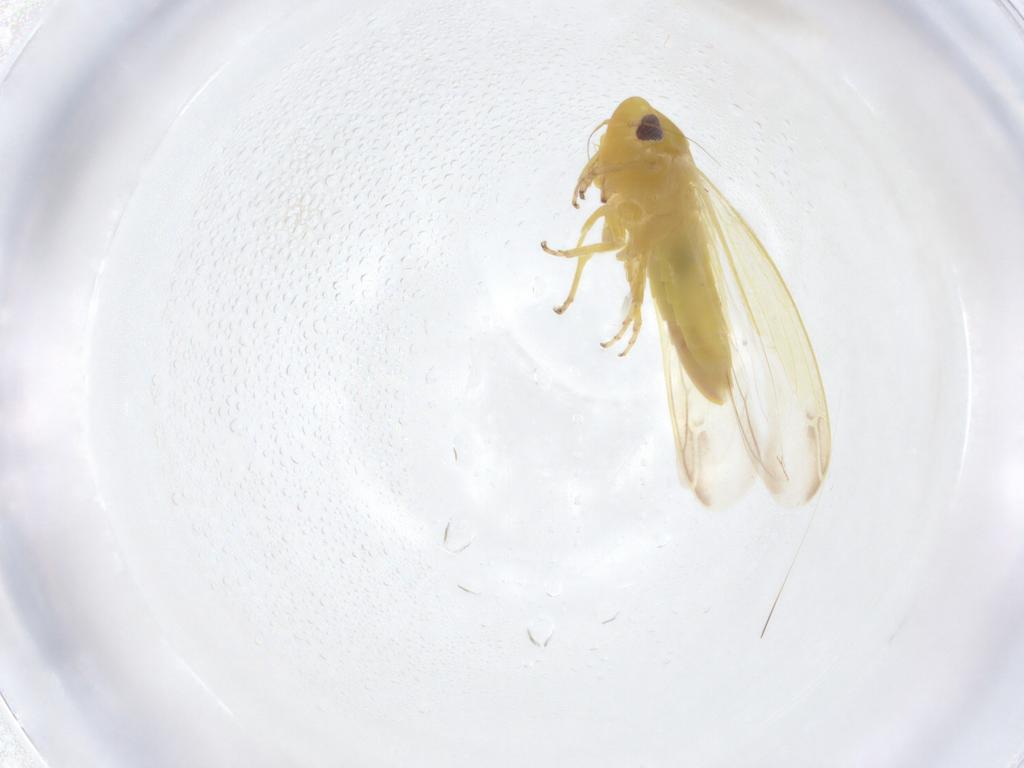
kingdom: Animalia
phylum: Arthropoda
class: Insecta
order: Hemiptera
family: Cicadellidae
